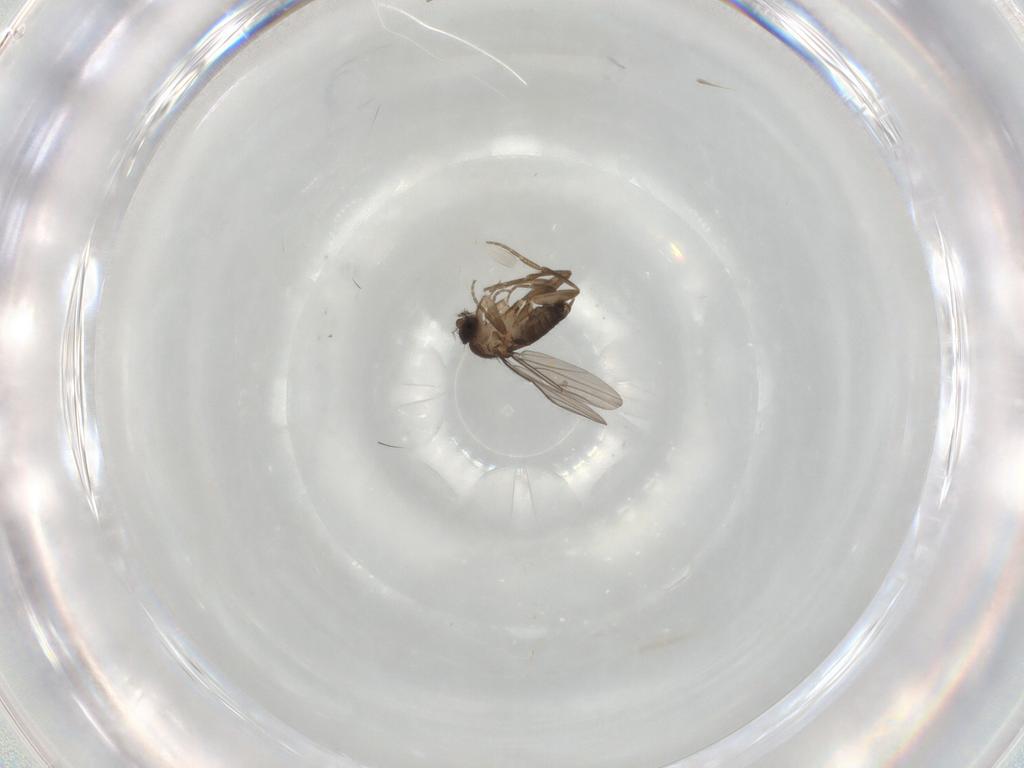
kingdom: Animalia
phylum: Arthropoda
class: Insecta
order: Diptera
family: Phoridae
